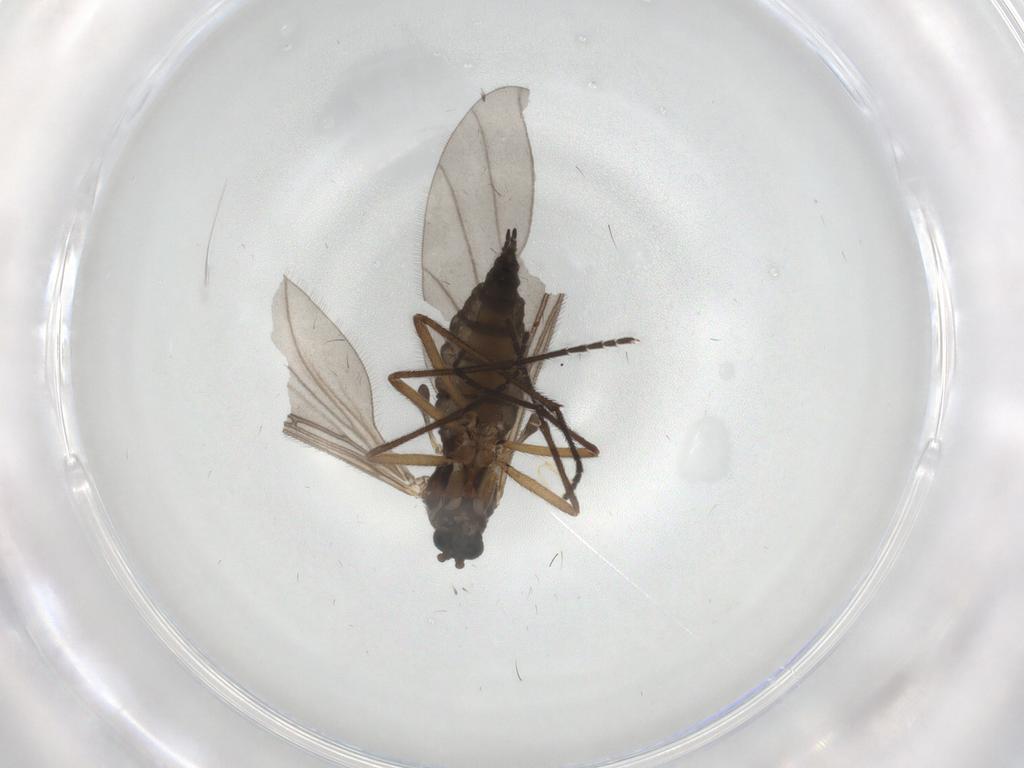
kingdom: Animalia
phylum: Arthropoda
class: Insecta
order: Diptera
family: Sciaridae
